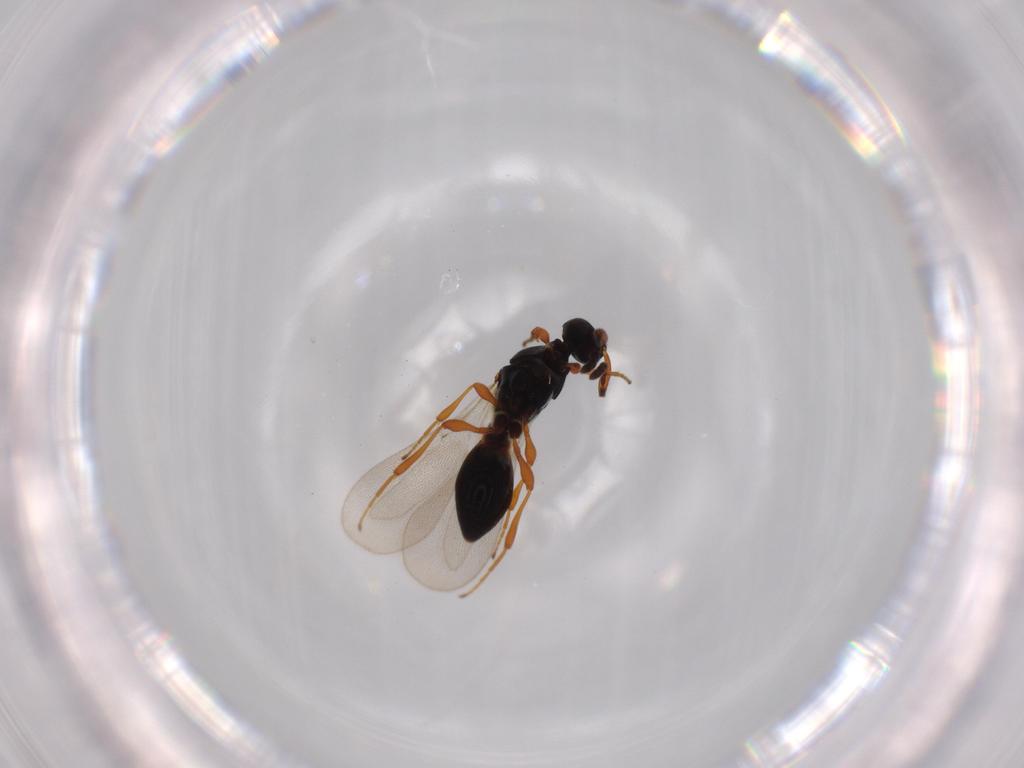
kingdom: Animalia
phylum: Arthropoda
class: Insecta
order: Hymenoptera
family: Platygastridae
